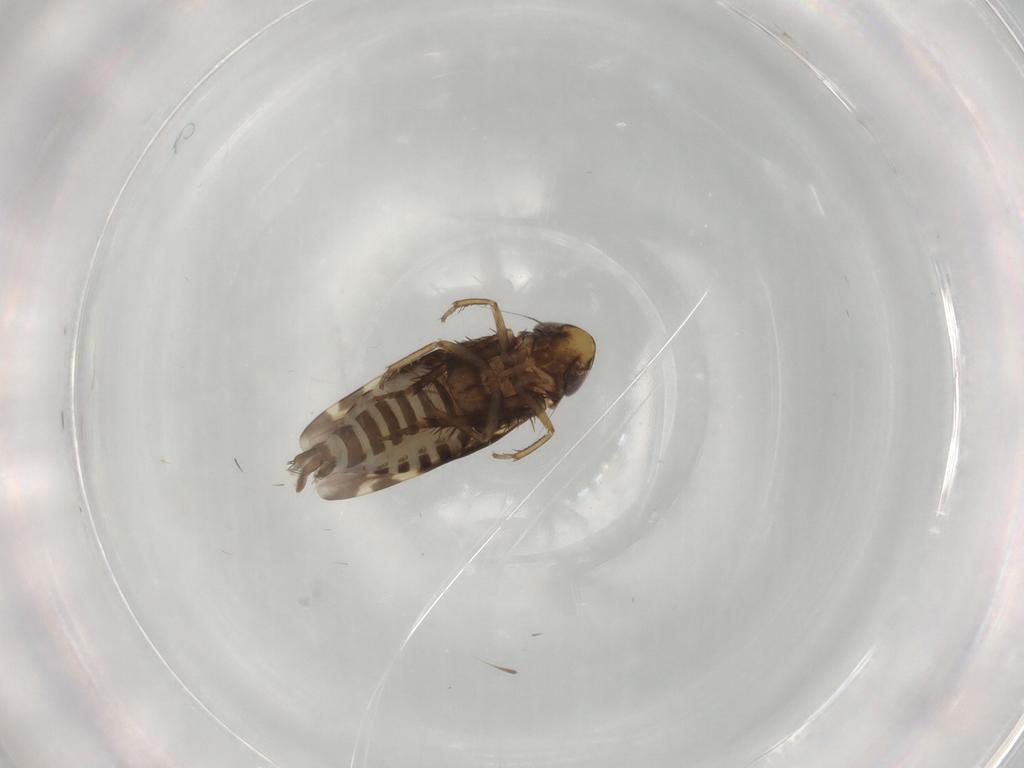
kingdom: Animalia
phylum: Arthropoda
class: Insecta
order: Hemiptera
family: Cicadellidae
